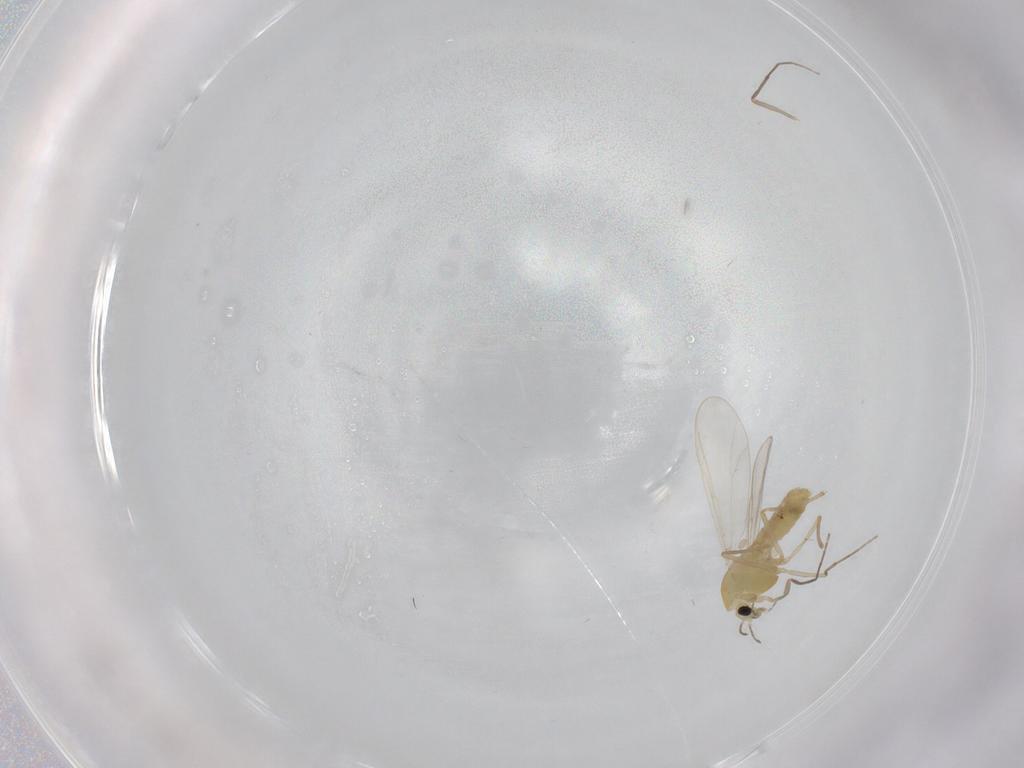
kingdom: Animalia
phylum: Arthropoda
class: Insecta
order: Diptera
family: Chironomidae
